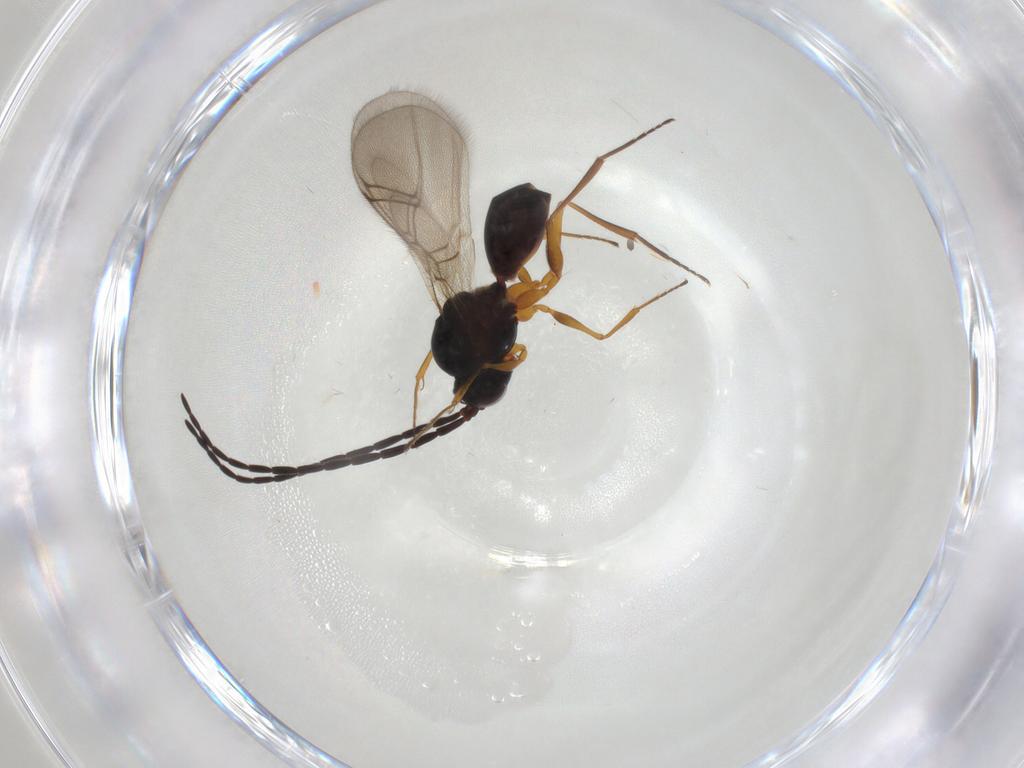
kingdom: Animalia
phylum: Arthropoda
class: Insecta
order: Hymenoptera
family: Figitidae
